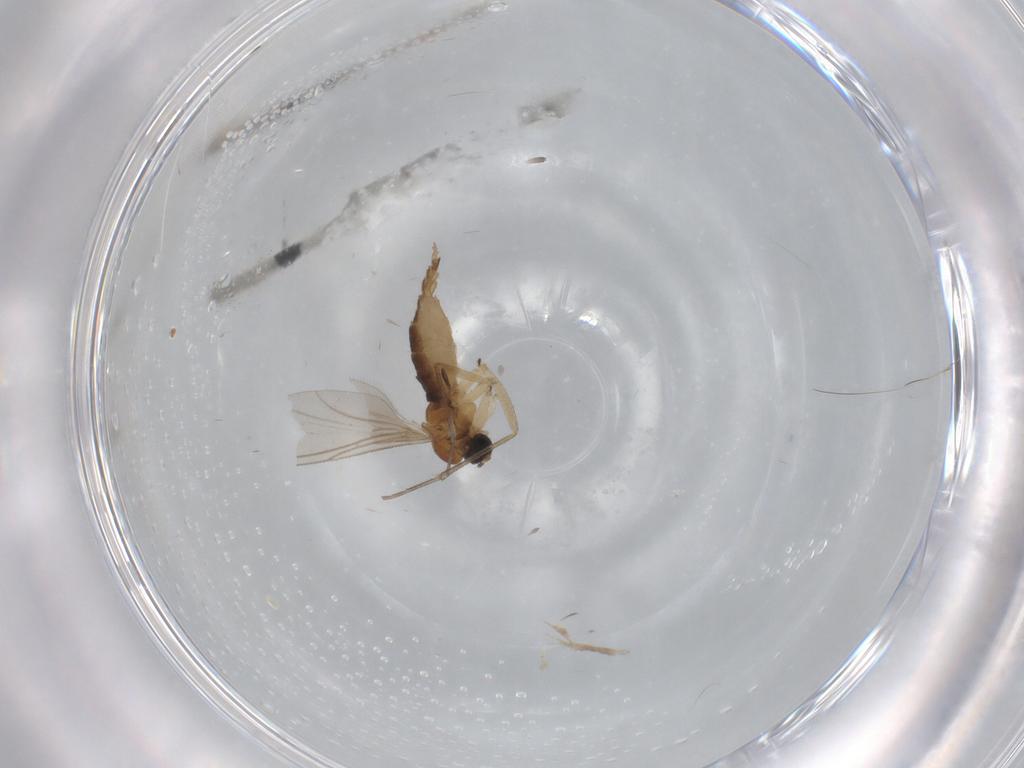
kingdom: Animalia
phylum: Arthropoda
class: Insecta
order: Diptera
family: Sciaridae
